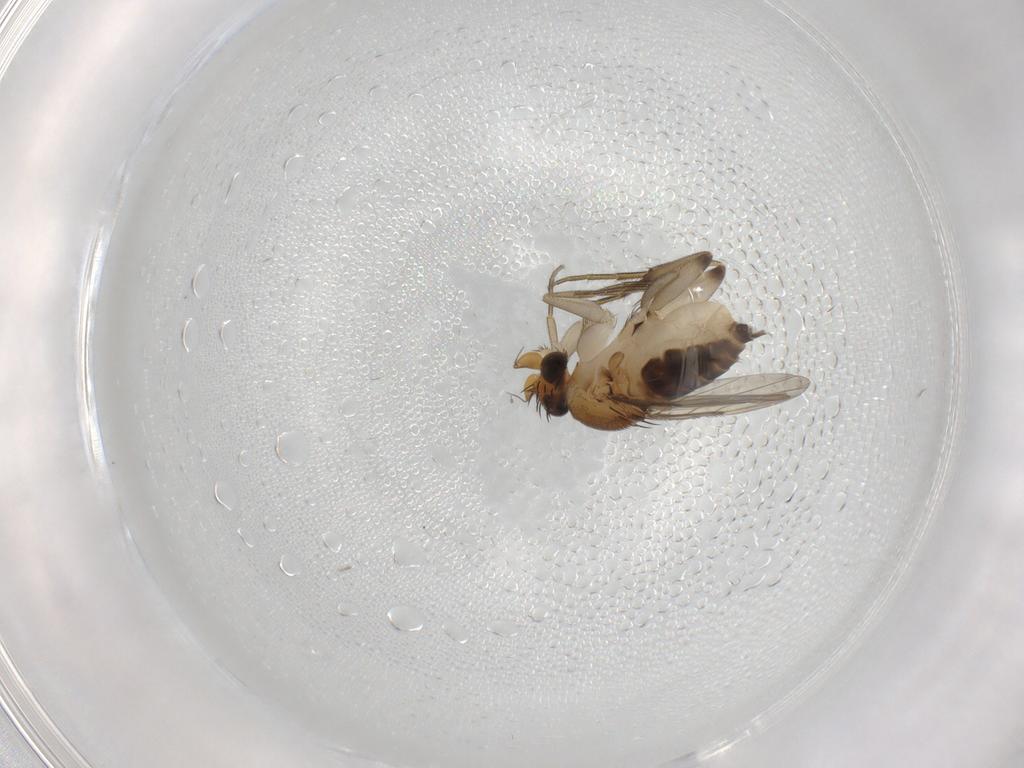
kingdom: Animalia
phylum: Arthropoda
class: Insecta
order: Diptera
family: Cecidomyiidae
